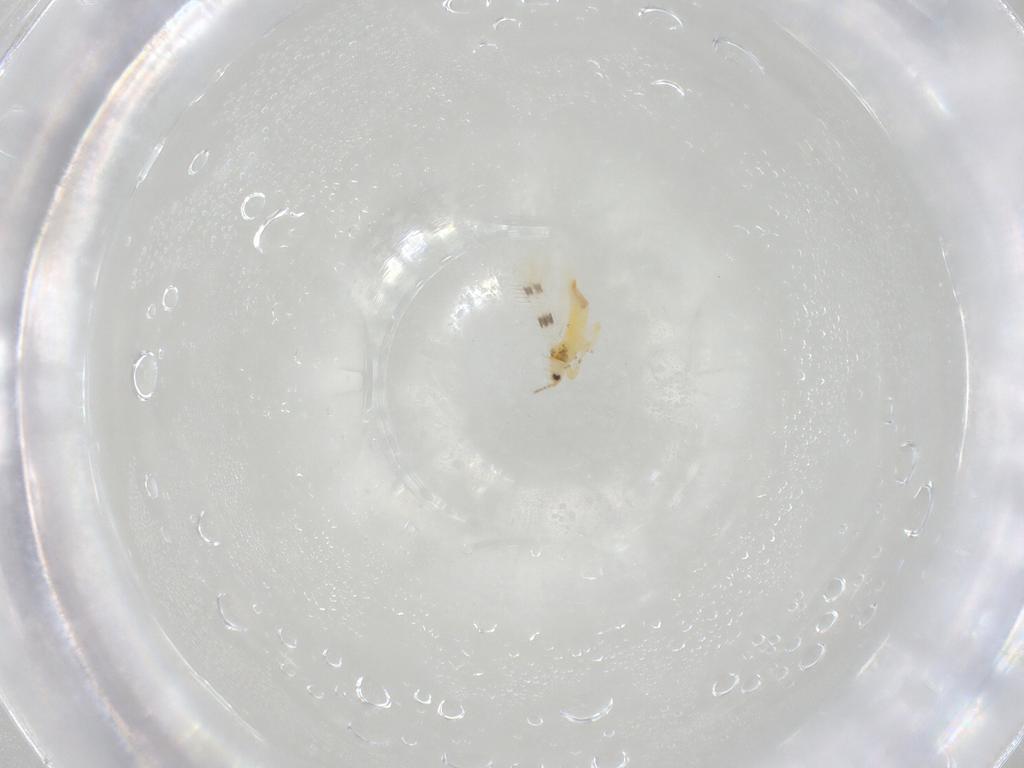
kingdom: Animalia
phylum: Arthropoda
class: Insecta
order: Thysanoptera
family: Thripidae
